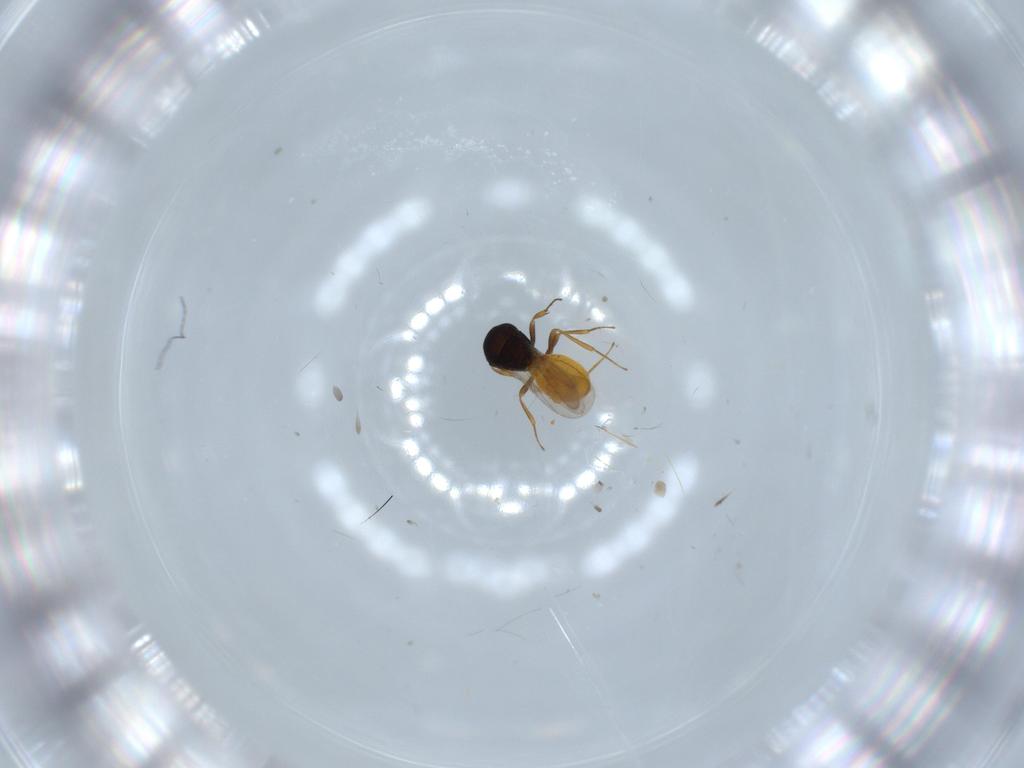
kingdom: Animalia
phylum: Arthropoda
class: Insecta
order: Hymenoptera
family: Scelionidae
